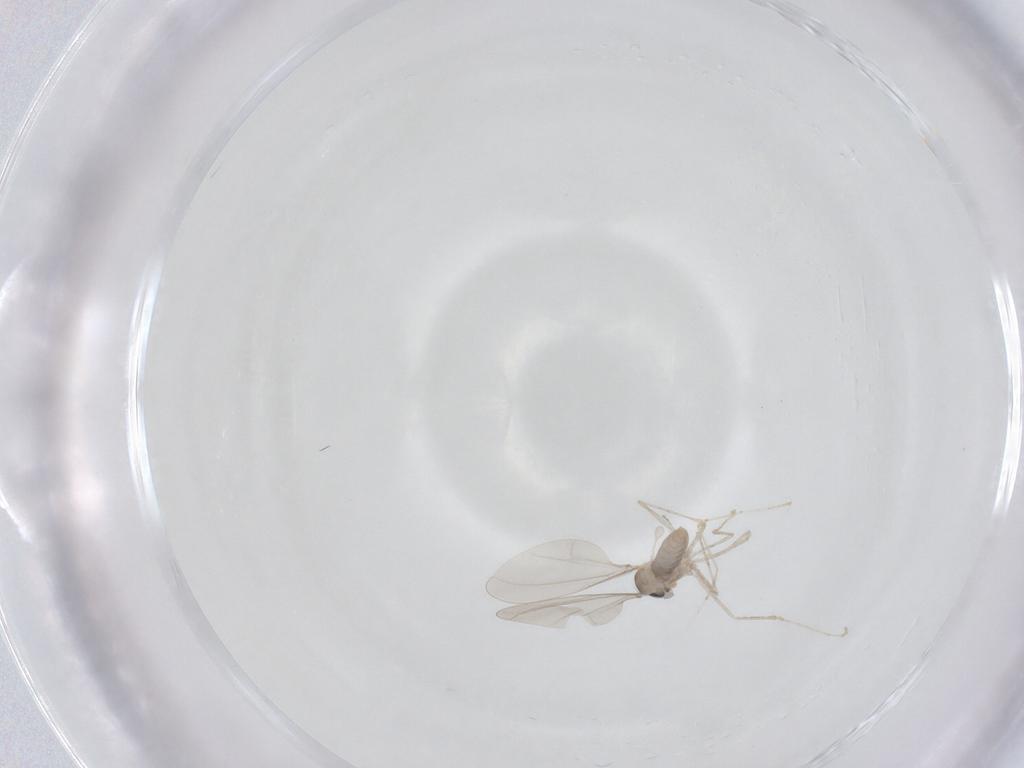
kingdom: Animalia
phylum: Arthropoda
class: Insecta
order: Diptera
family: Cecidomyiidae
